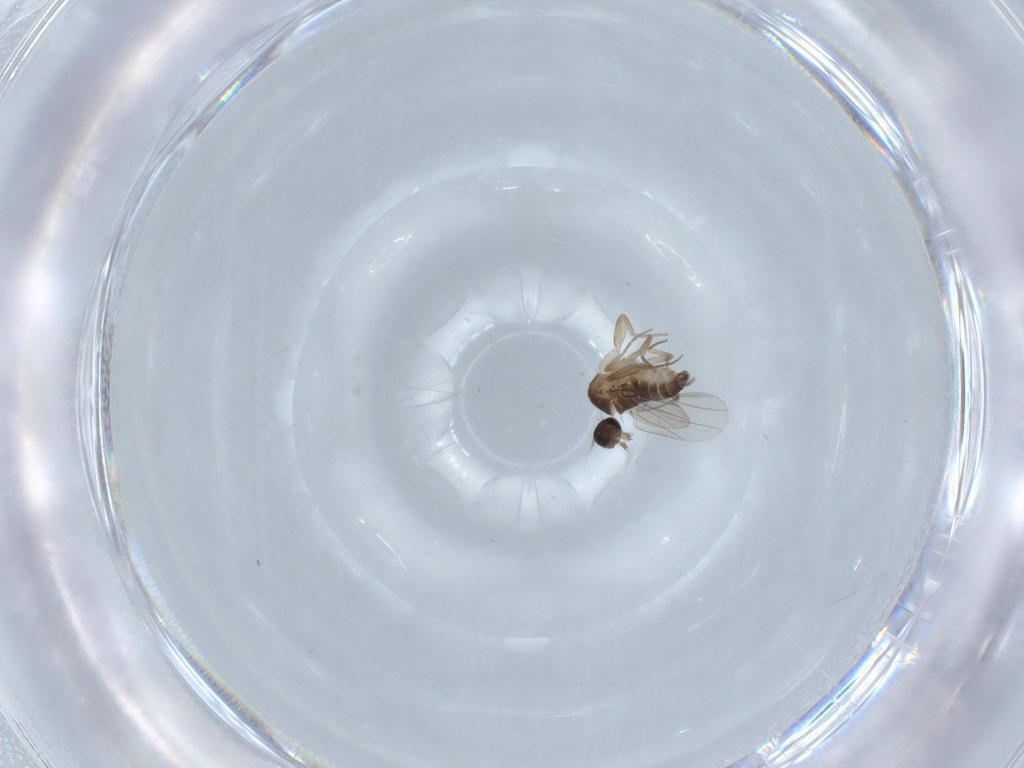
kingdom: Animalia
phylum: Arthropoda
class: Insecta
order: Diptera
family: Phoridae
